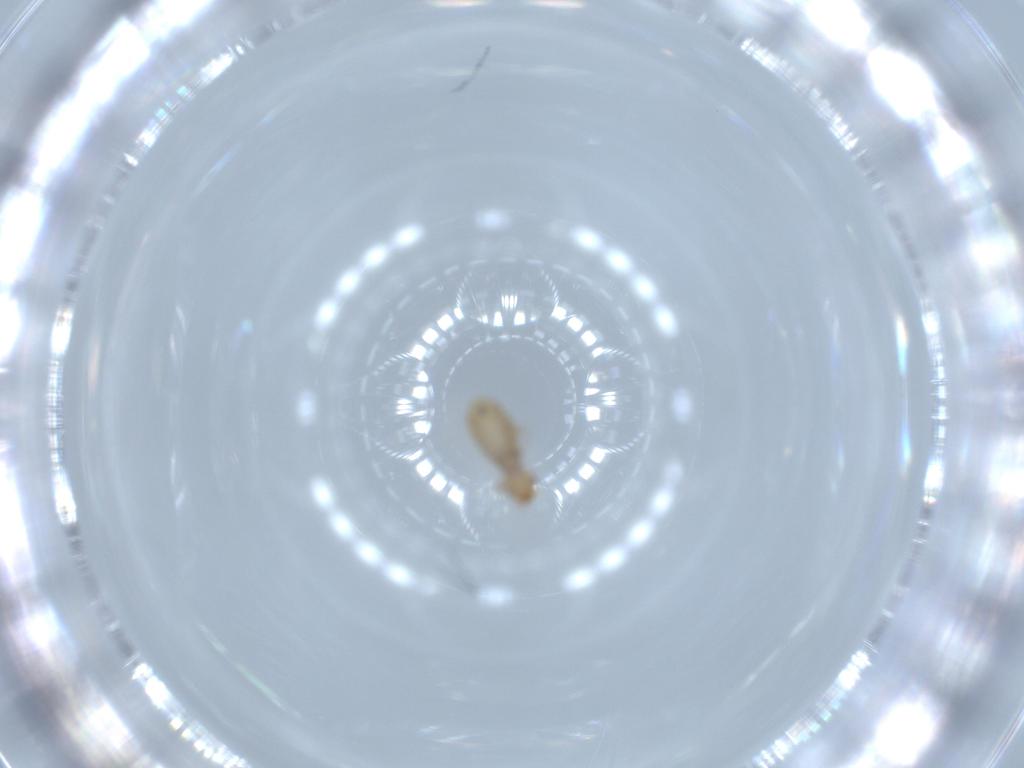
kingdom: Animalia
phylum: Arthropoda
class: Insecta
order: Psocodea
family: Liposcelididae
